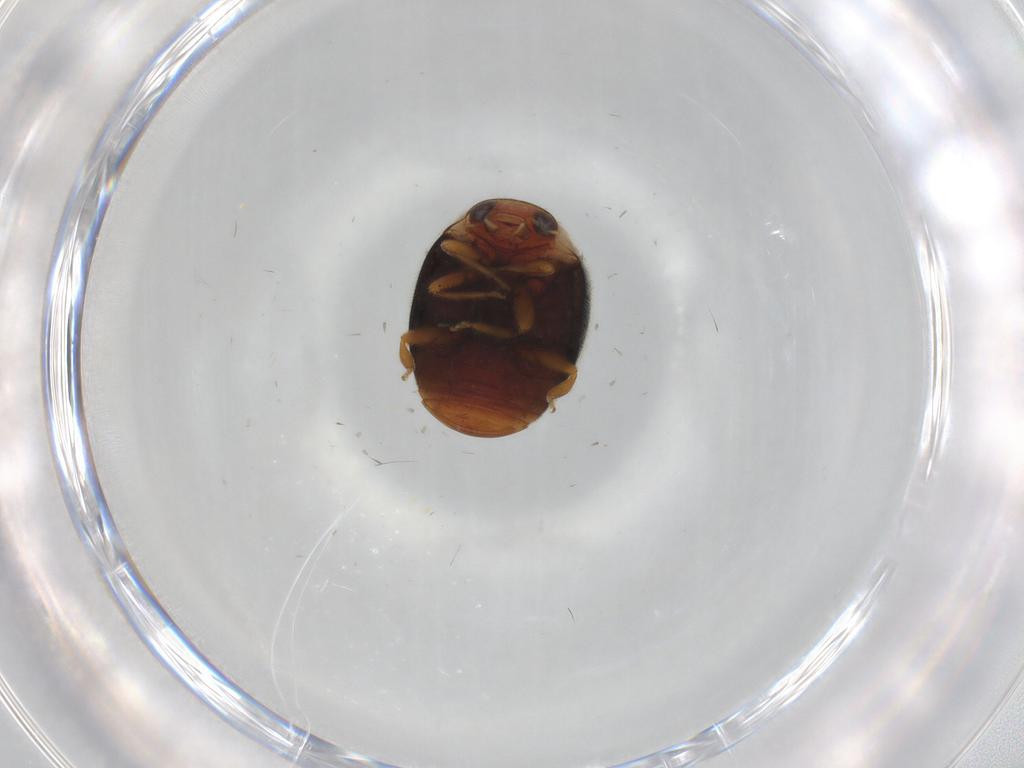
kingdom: Animalia
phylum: Arthropoda
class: Insecta
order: Coleoptera
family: Coccinellidae
